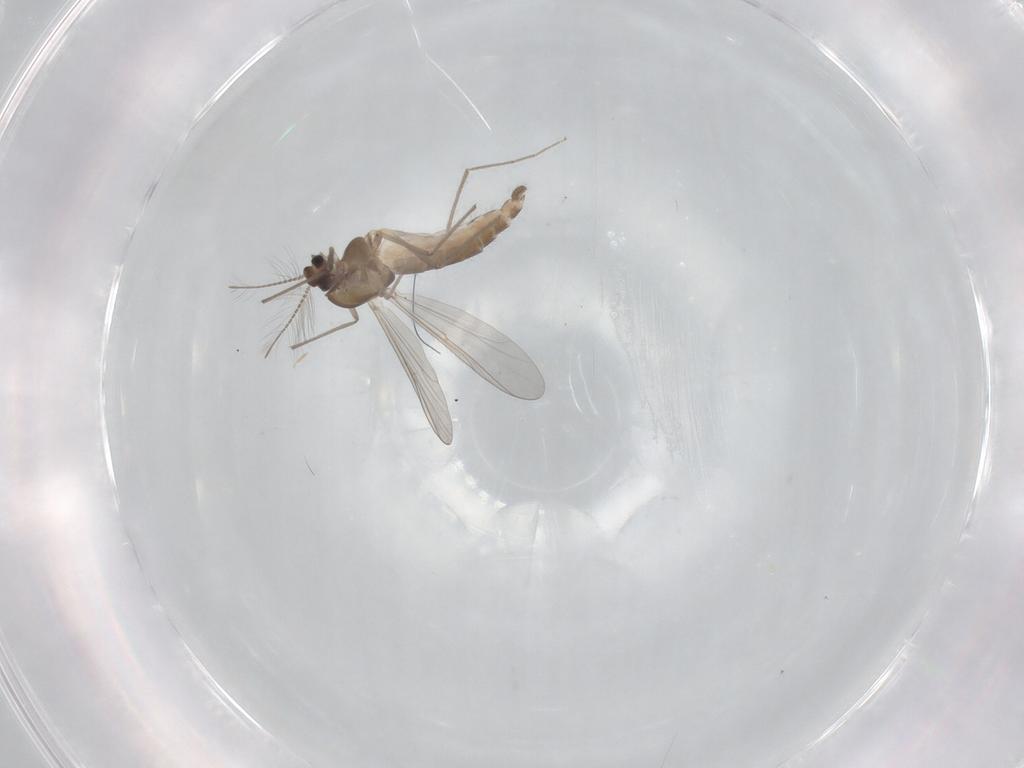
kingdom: Animalia
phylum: Arthropoda
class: Insecta
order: Diptera
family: Chironomidae
